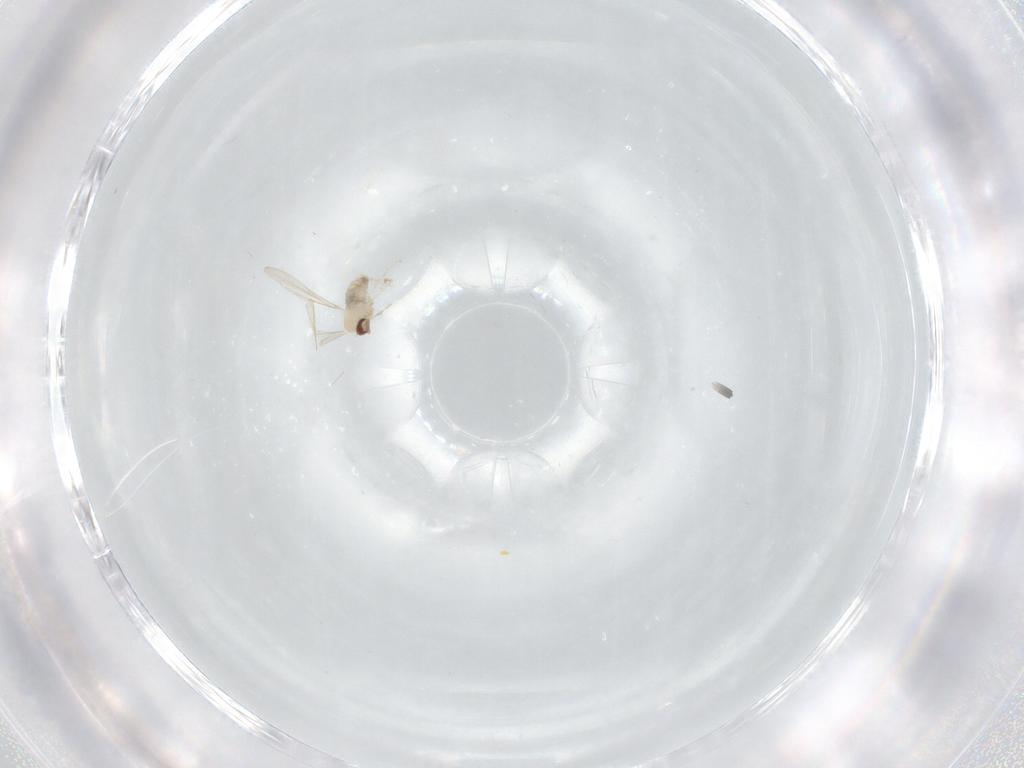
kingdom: Animalia
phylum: Arthropoda
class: Insecta
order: Diptera
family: Cecidomyiidae
